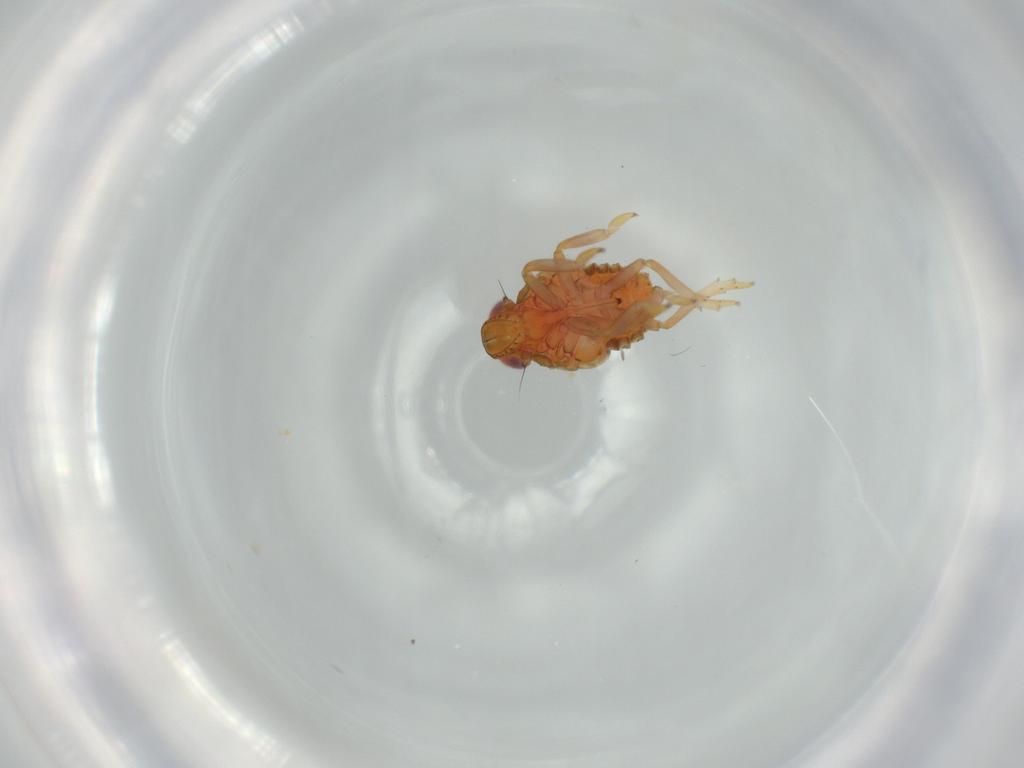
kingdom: Animalia
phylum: Arthropoda
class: Insecta
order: Hemiptera
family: Issidae
